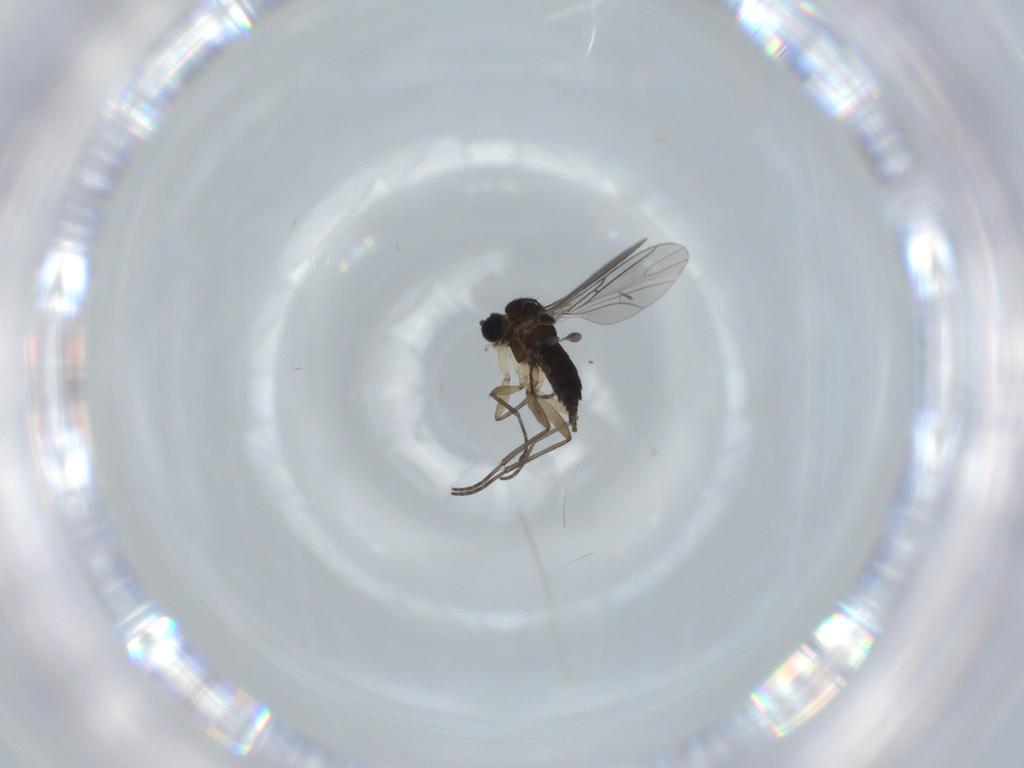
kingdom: Animalia
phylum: Arthropoda
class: Insecta
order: Diptera
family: Sciaridae
